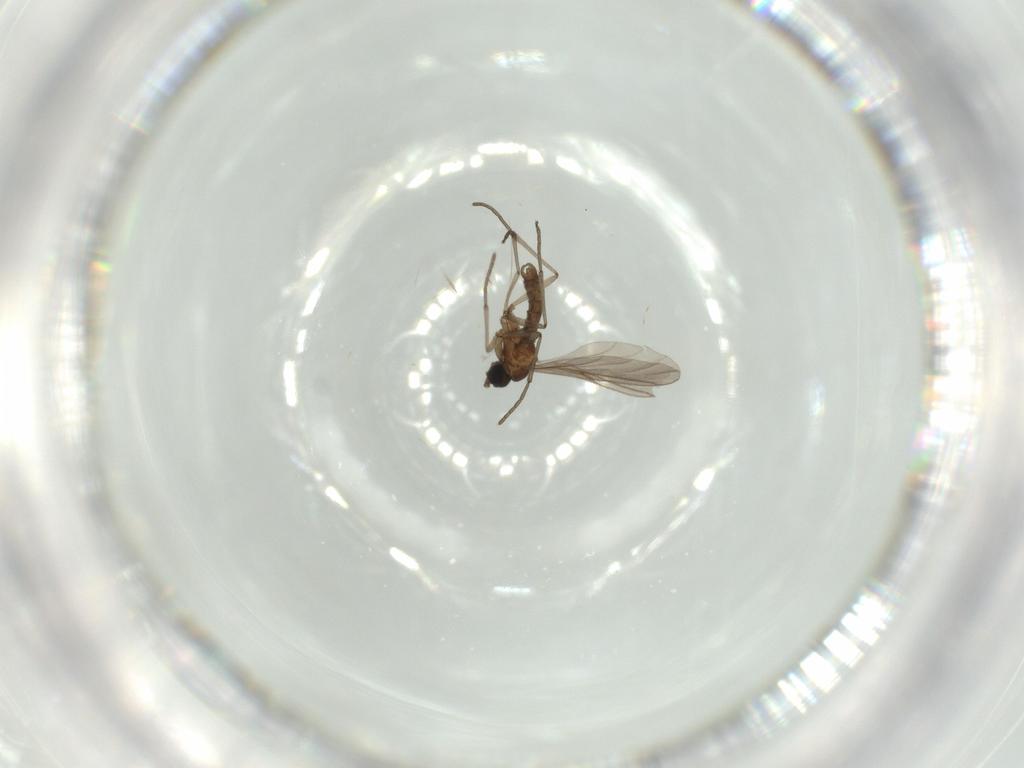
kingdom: Animalia
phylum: Arthropoda
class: Insecta
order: Diptera
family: Sciaridae
